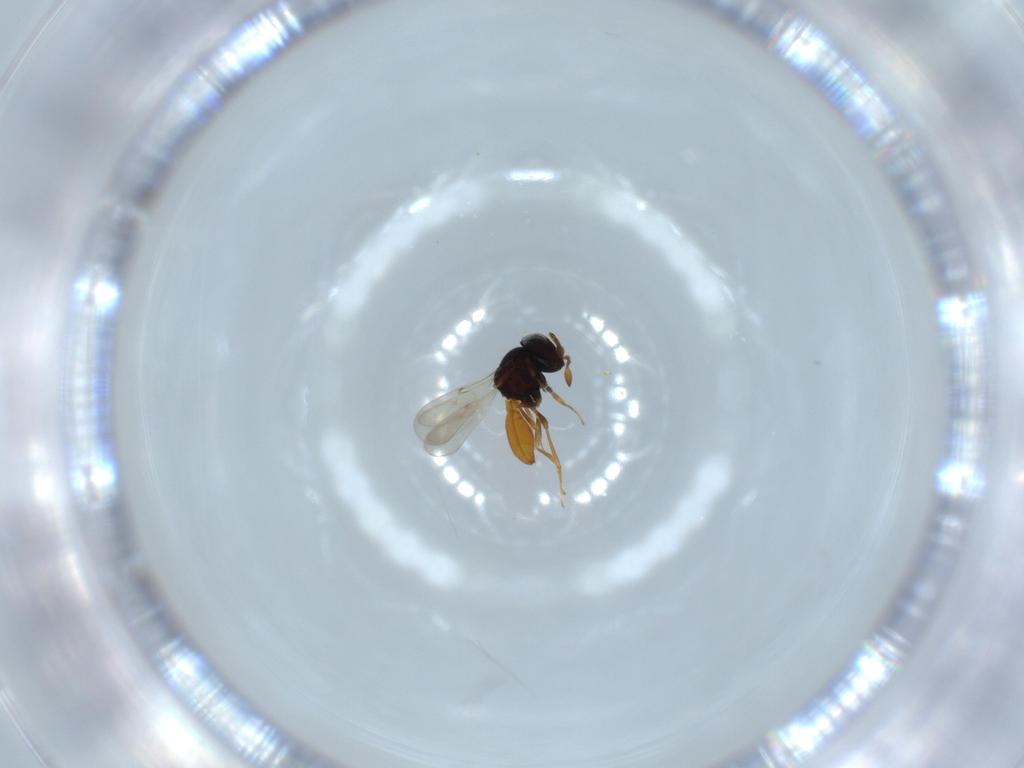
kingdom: Animalia
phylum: Arthropoda
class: Insecta
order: Hymenoptera
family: Scelionidae
